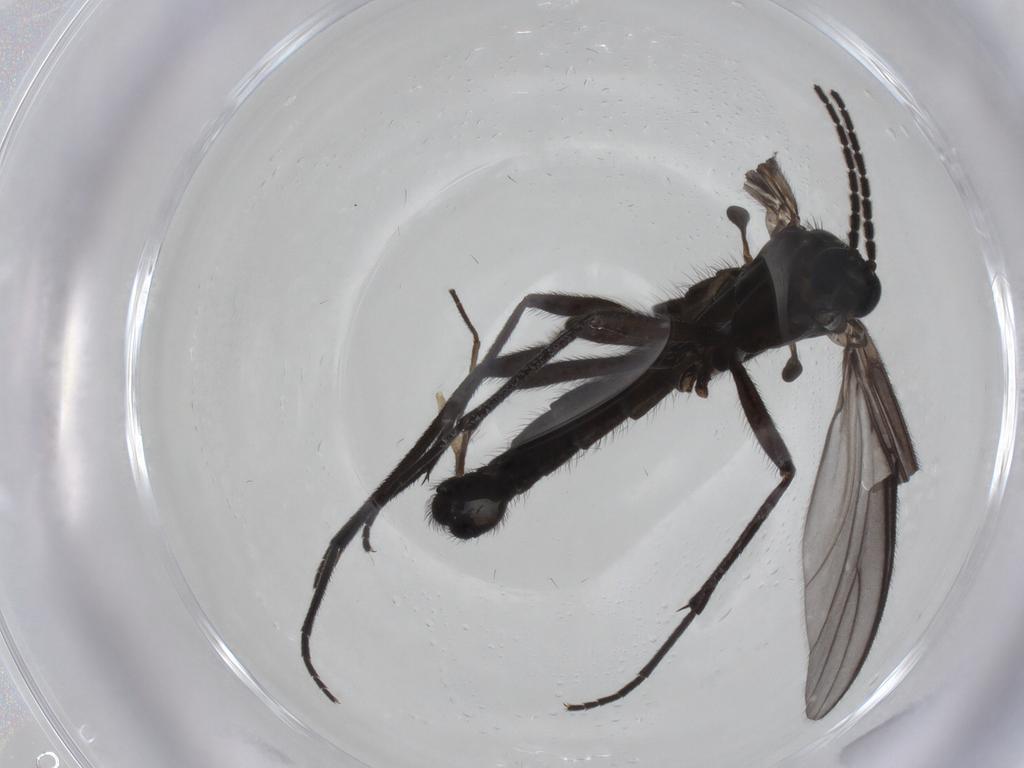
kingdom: Animalia
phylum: Arthropoda
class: Insecta
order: Diptera
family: Sciaridae
